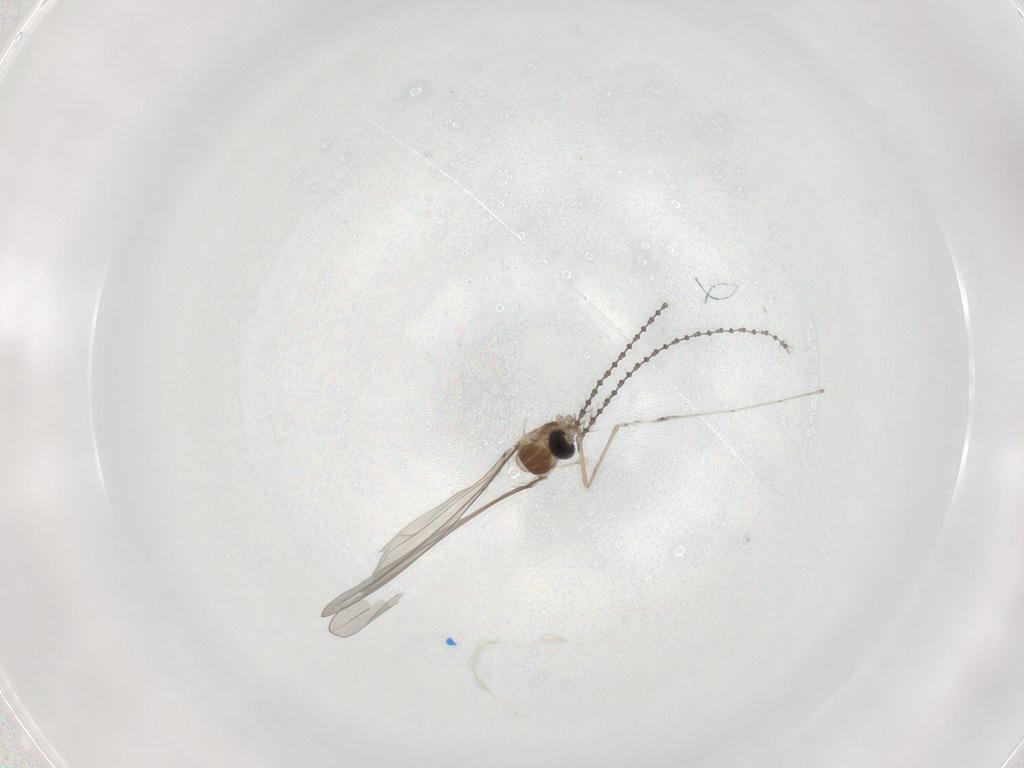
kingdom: Animalia
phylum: Arthropoda
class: Insecta
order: Diptera
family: Cecidomyiidae
